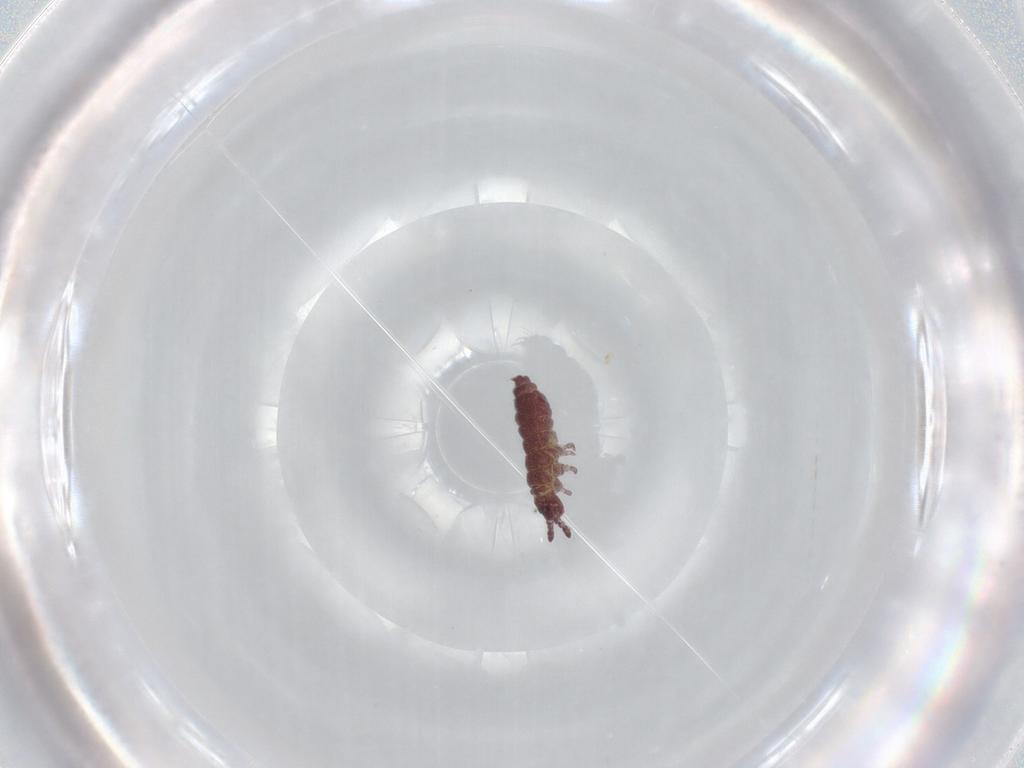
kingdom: Animalia
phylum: Arthropoda
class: Collembola
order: Poduromorpha
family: Hypogastruridae
